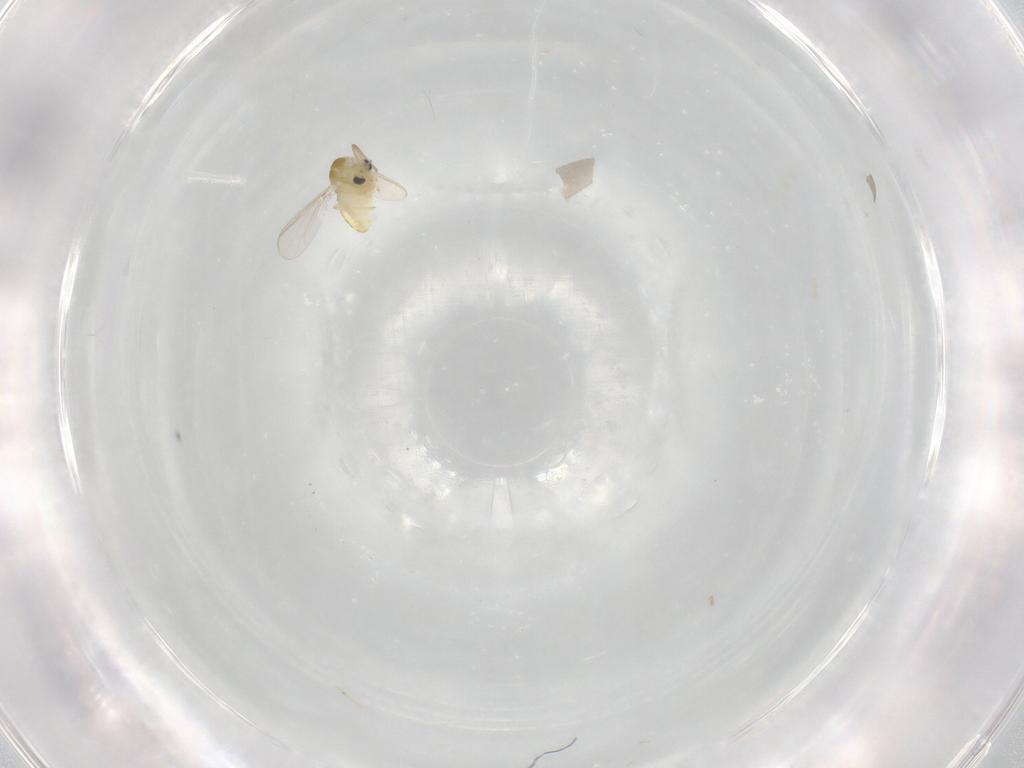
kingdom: Animalia
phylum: Arthropoda
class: Insecta
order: Diptera
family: Chironomidae
